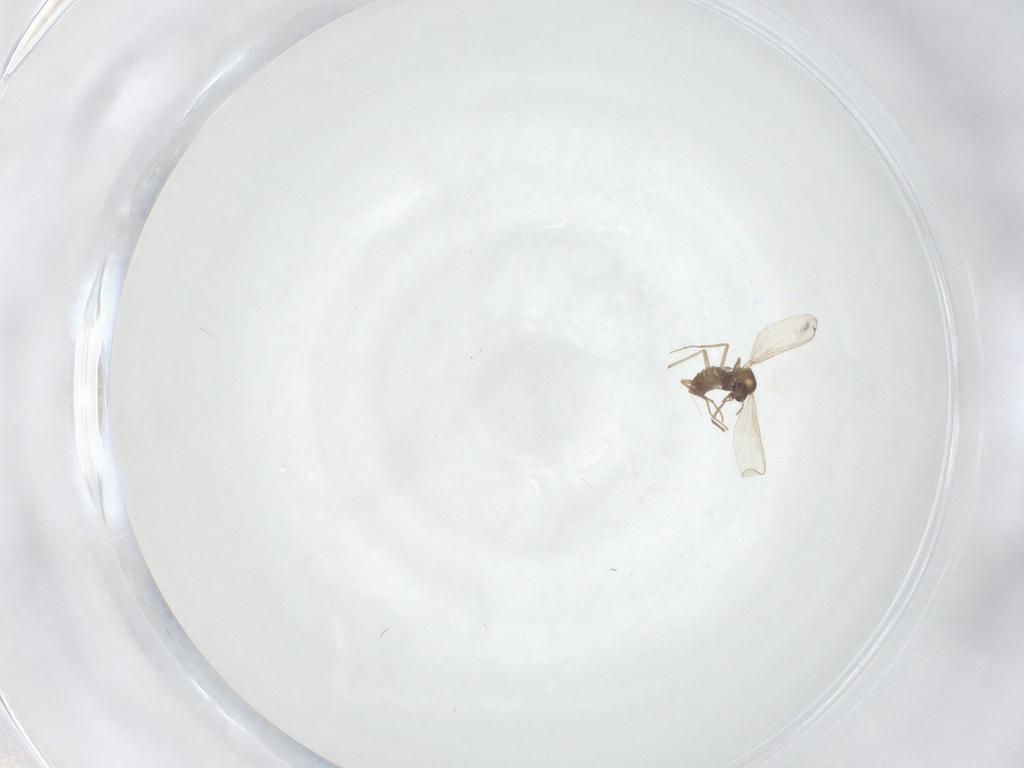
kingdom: Animalia
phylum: Arthropoda
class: Insecta
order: Diptera
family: Chironomidae
